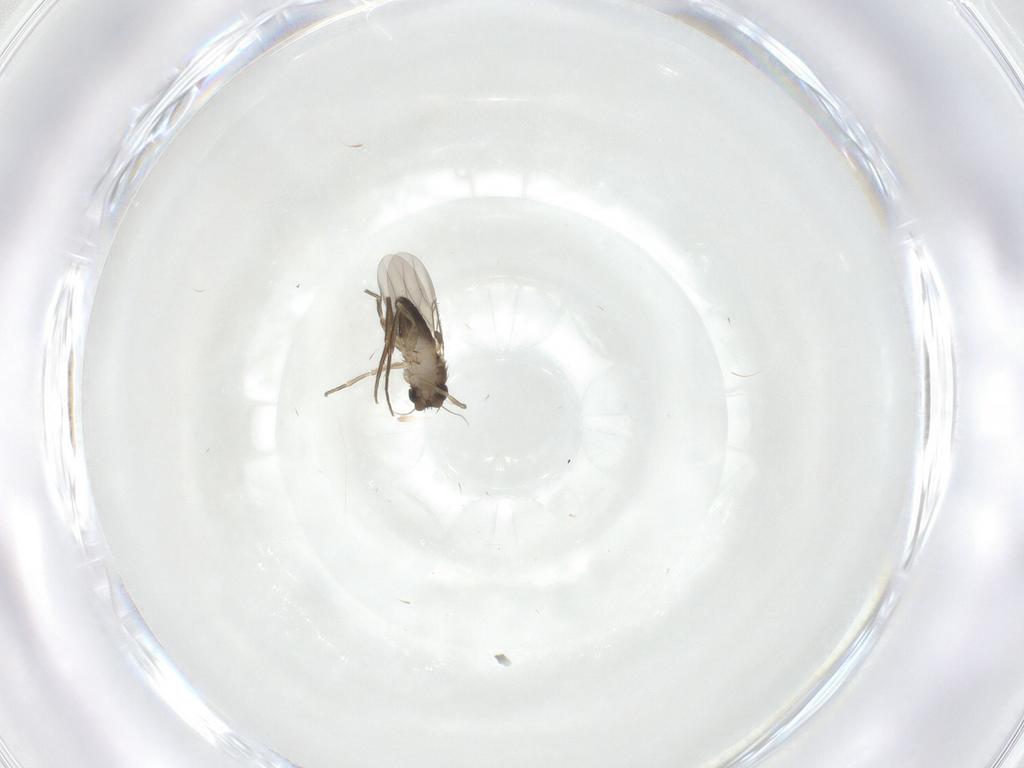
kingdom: Animalia
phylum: Arthropoda
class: Insecta
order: Diptera
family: Phoridae
